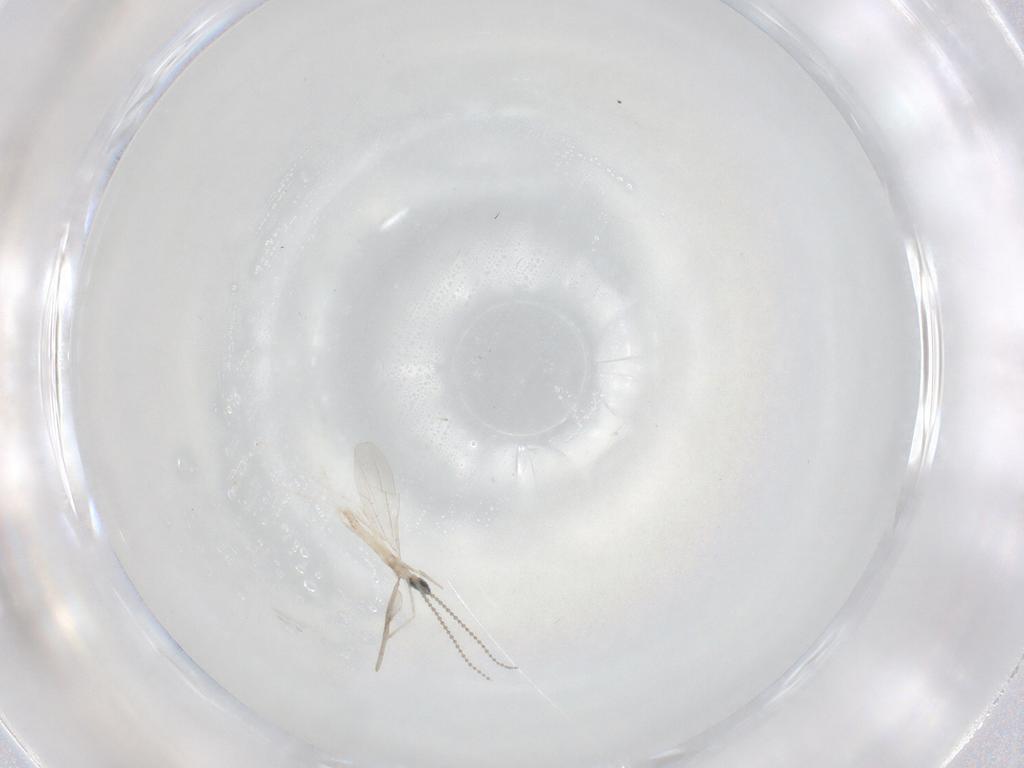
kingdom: Animalia
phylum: Arthropoda
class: Insecta
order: Diptera
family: Cecidomyiidae
